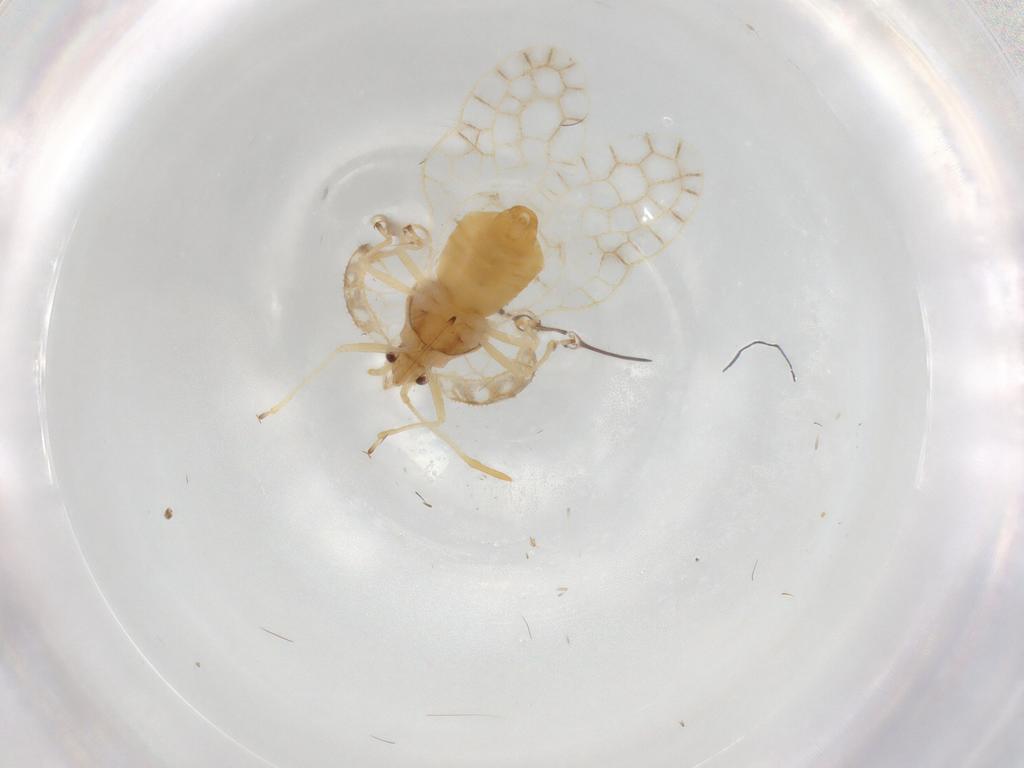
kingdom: Animalia
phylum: Arthropoda
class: Insecta
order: Hemiptera
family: Tingidae
